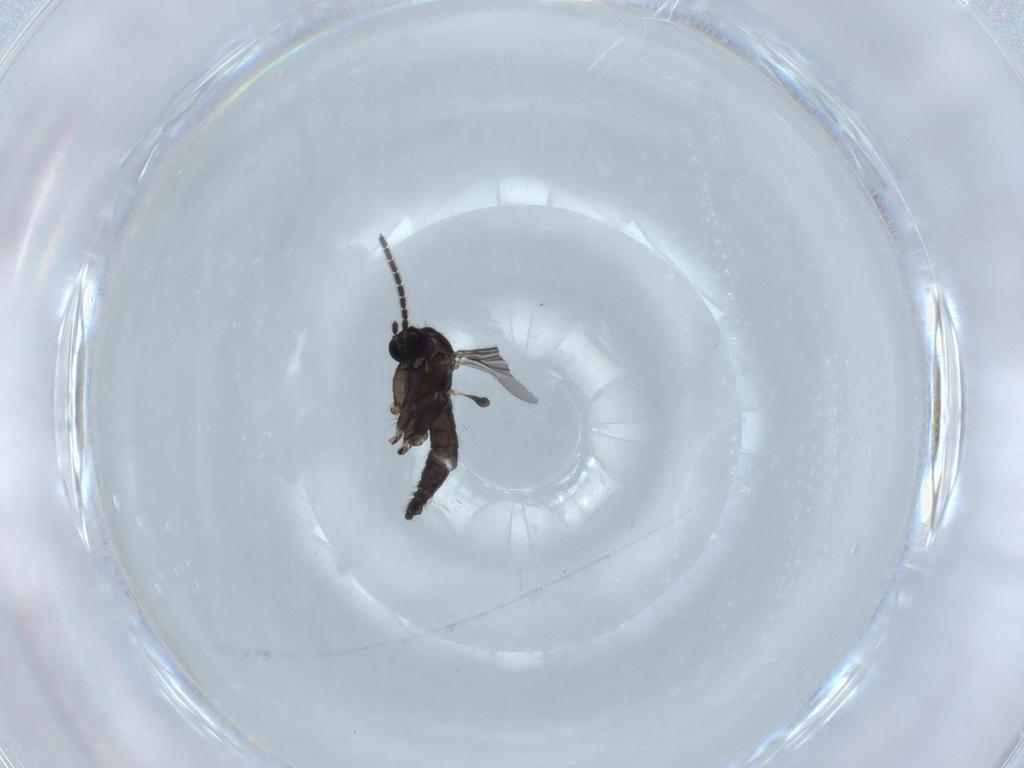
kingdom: Animalia
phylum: Arthropoda
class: Insecta
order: Diptera
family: Sciaridae
